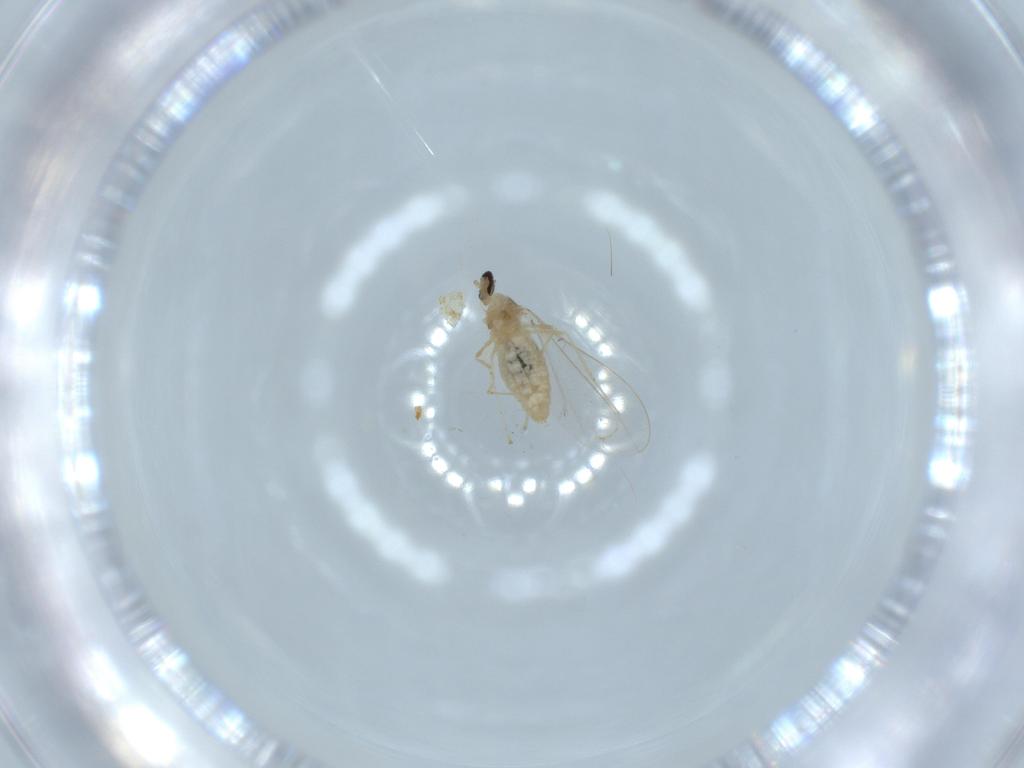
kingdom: Animalia
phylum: Arthropoda
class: Insecta
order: Diptera
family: Cecidomyiidae
